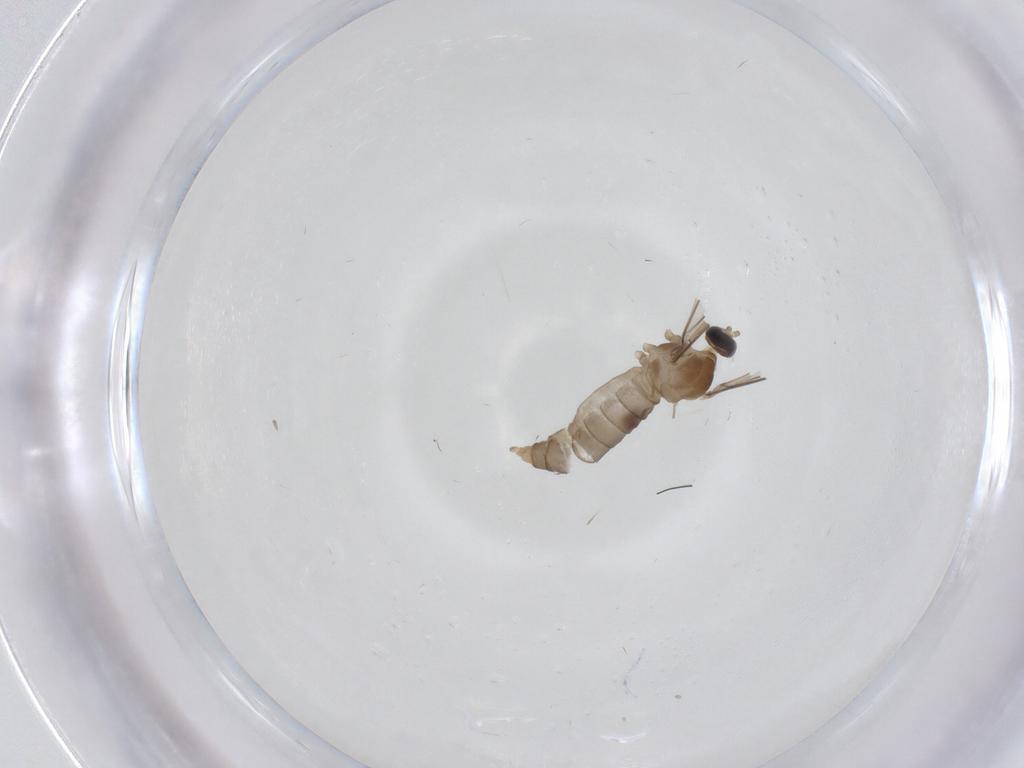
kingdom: Animalia
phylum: Arthropoda
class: Insecta
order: Diptera
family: Cecidomyiidae
